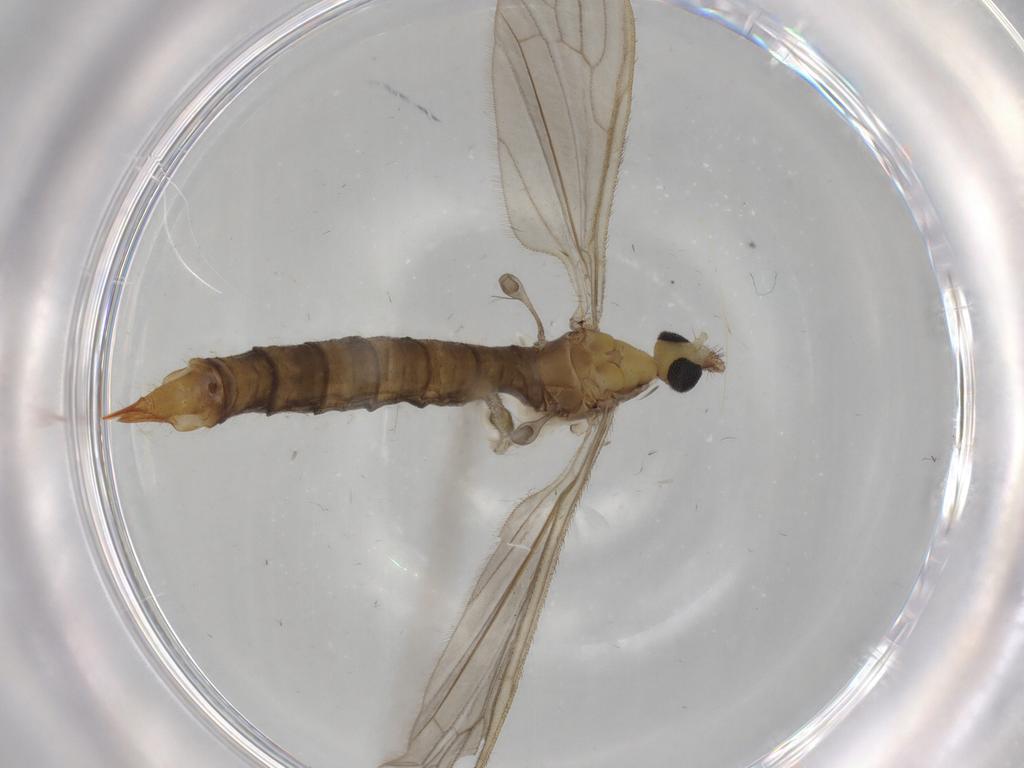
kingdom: Animalia
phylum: Arthropoda
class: Insecta
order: Diptera
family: Limoniidae
